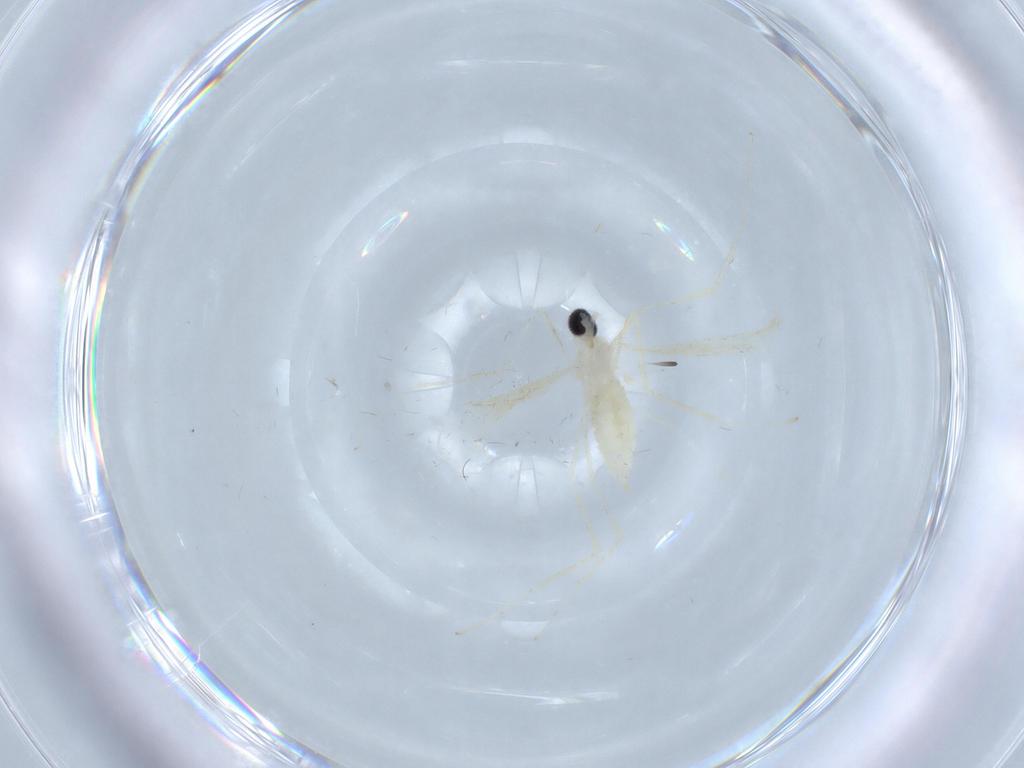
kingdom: Animalia
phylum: Arthropoda
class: Insecta
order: Diptera
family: Cecidomyiidae
